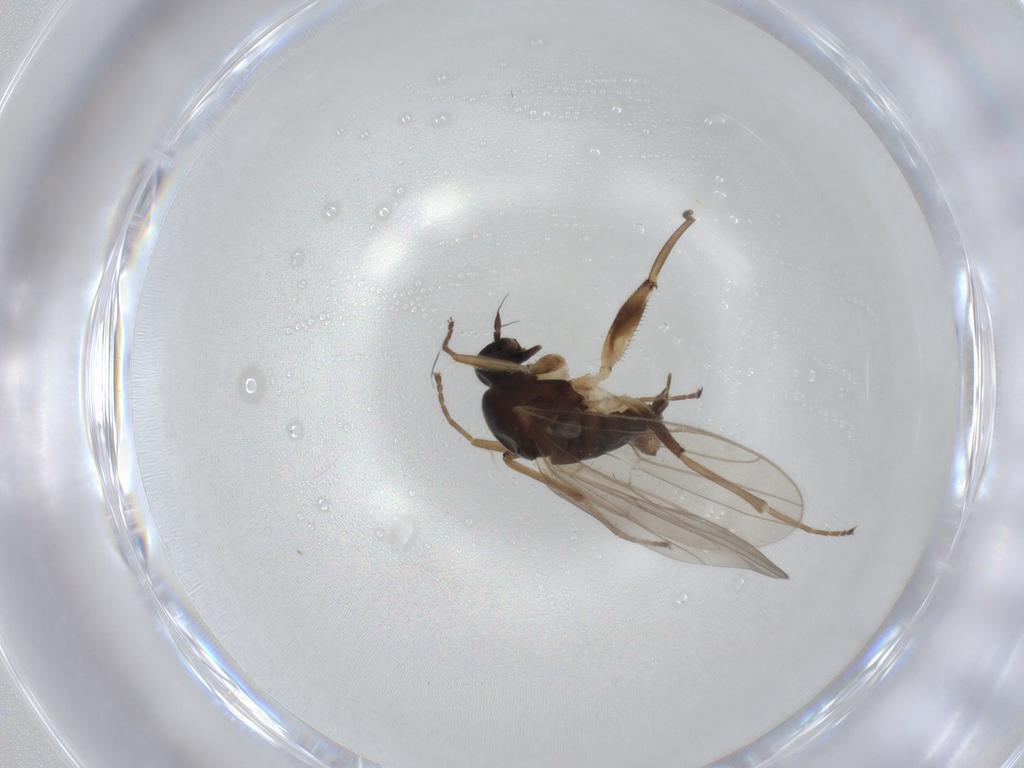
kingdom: Animalia
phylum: Arthropoda
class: Insecta
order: Diptera
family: Hybotidae
